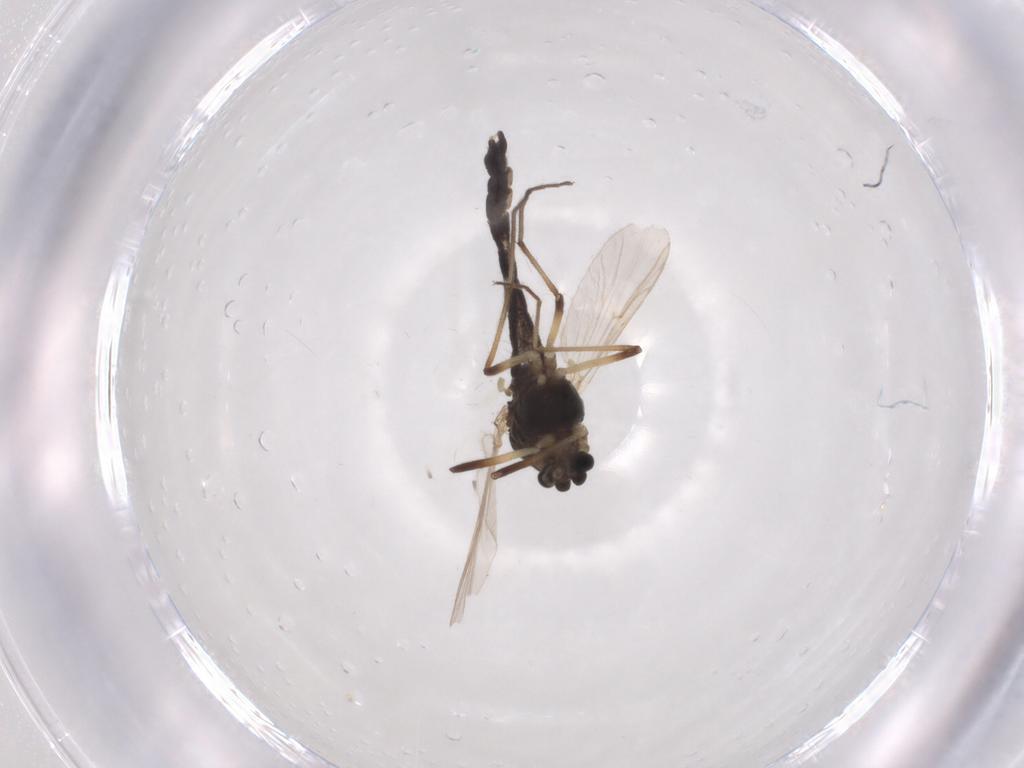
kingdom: Animalia
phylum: Arthropoda
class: Insecta
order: Diptera
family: Chironomidae
